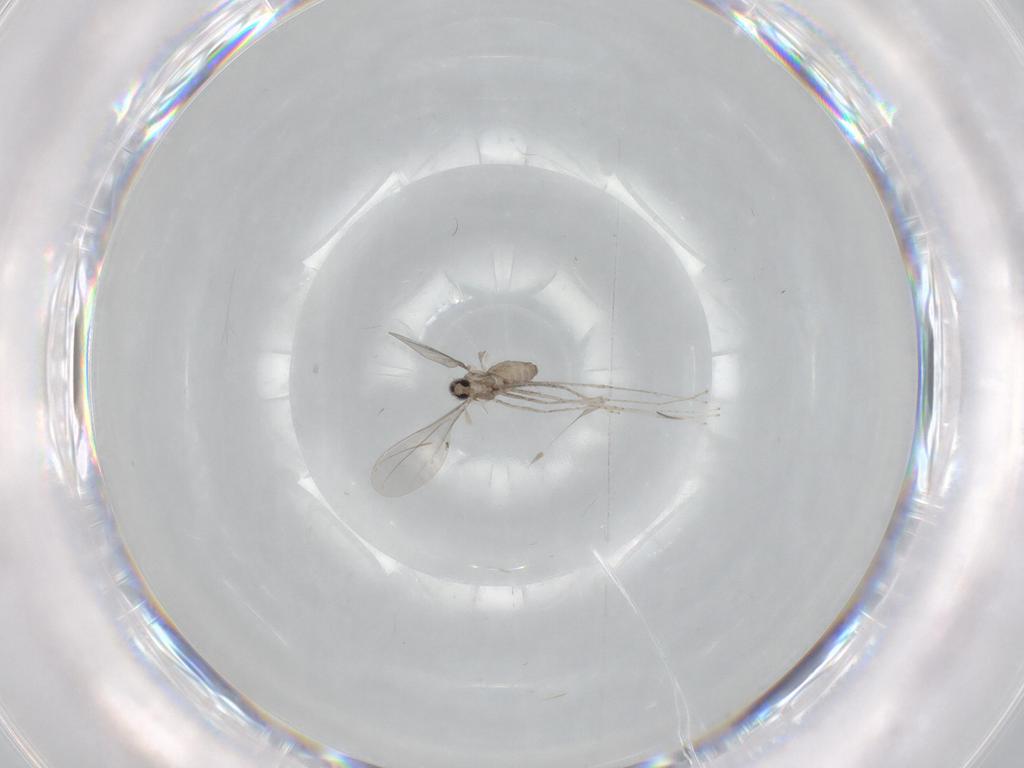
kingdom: Animalia
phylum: Arthropoda
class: Insecta
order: Diptera
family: Cecidomyiidae
